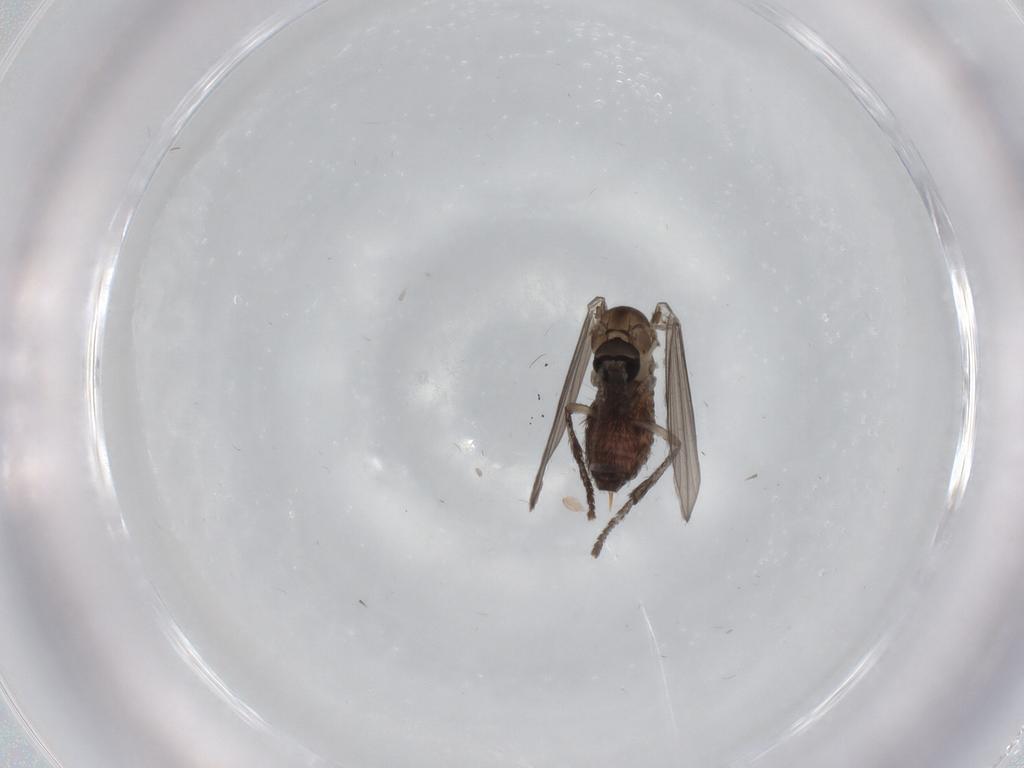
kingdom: Animalia
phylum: Arthropoda
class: Insecta
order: Diptera
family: Psychodidae
